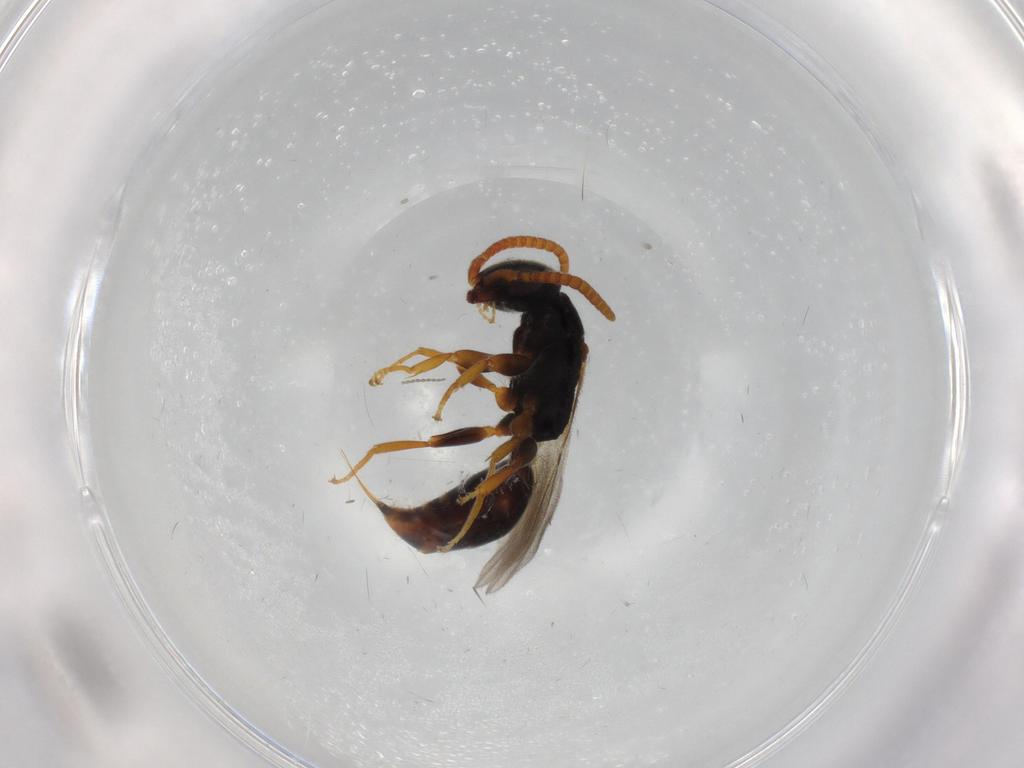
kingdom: Animalia
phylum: Arthropoda
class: Insecta
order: Hymenoptera
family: Bethylidae
